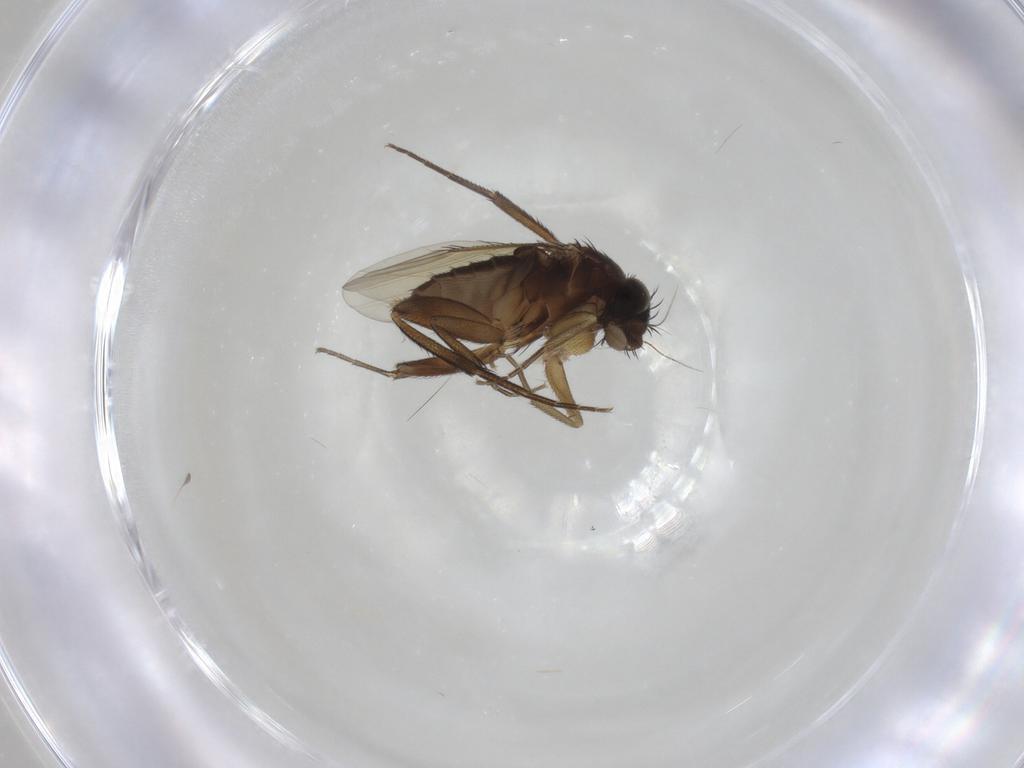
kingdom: Animalia
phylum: Arthropoda
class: Insecta
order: Diptera
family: Phoridae
